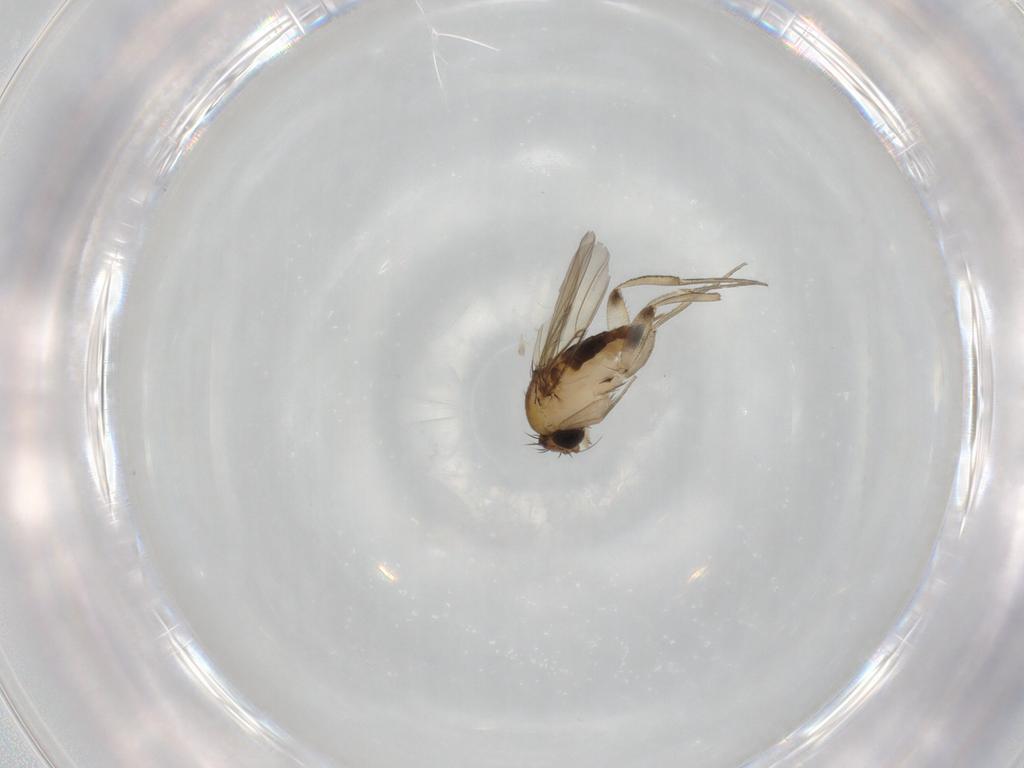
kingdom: Animalia
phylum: Arthropoda
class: Insecta
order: Diptera
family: Phoridae
